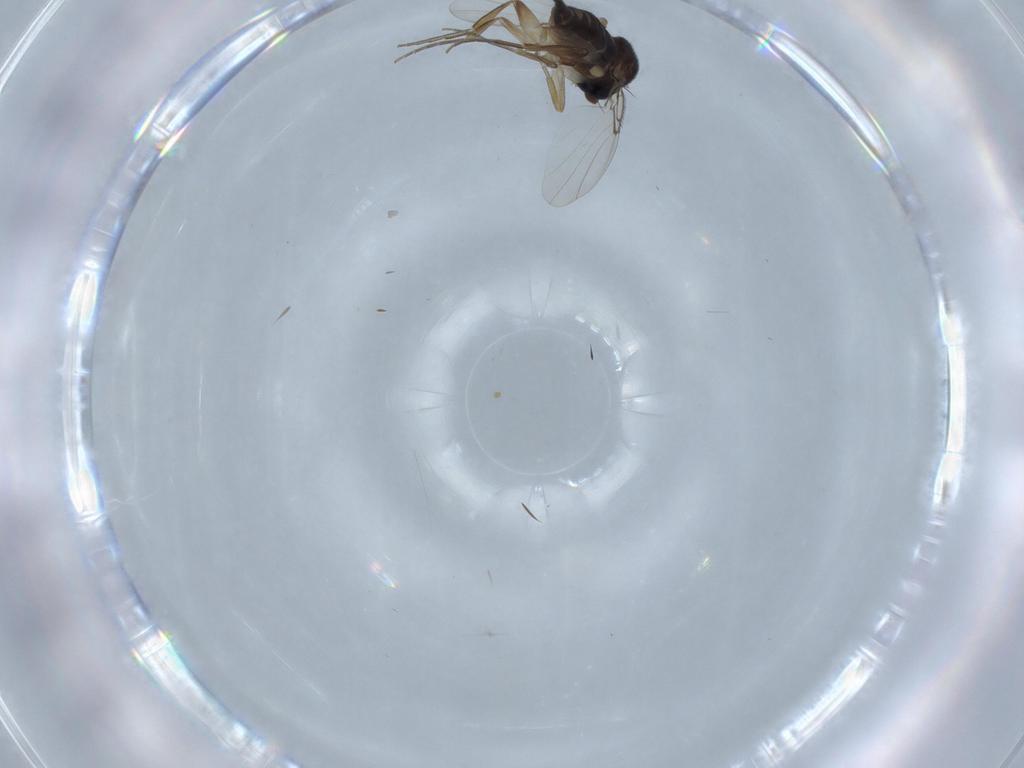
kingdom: Animalia
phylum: Arthropoda
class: Insecta
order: Diptera
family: Phoridae
